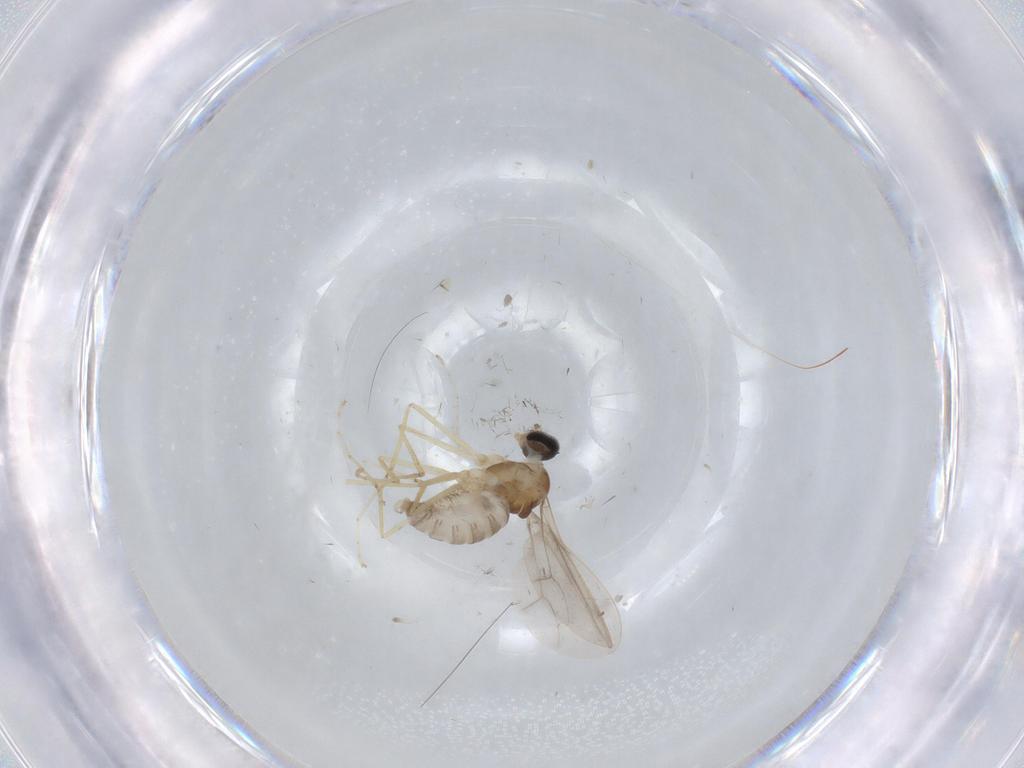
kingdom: Animalia
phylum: Arthropoda
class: Insecta
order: Diptera
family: Cecidomyiidae
